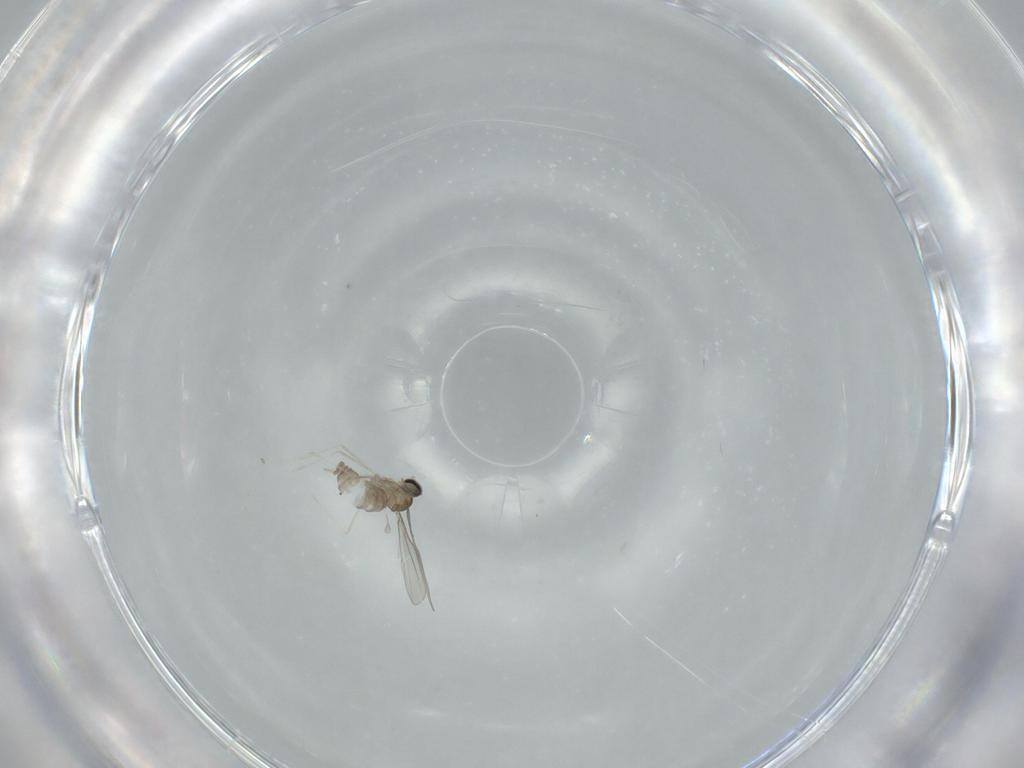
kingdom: Animalia
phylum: Arthropoda
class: Insecta
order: Diptera
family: Cecidomyiidae
